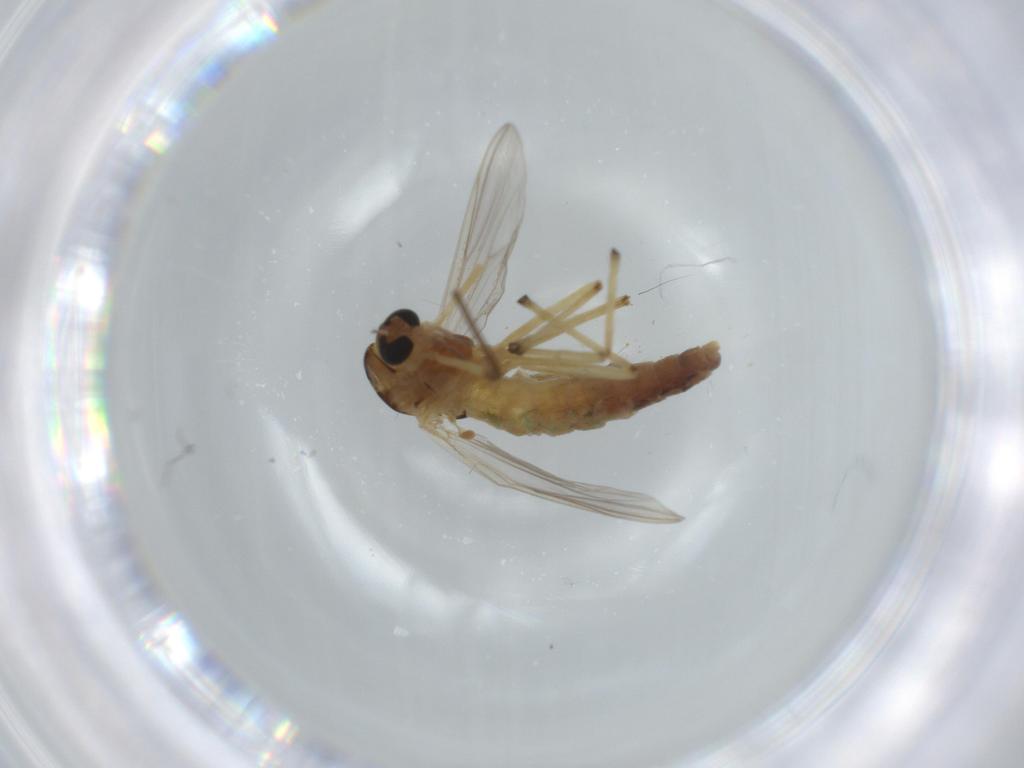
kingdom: Animalia
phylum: Arthropoda
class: Insecta
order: Diptera
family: Chironomidae
